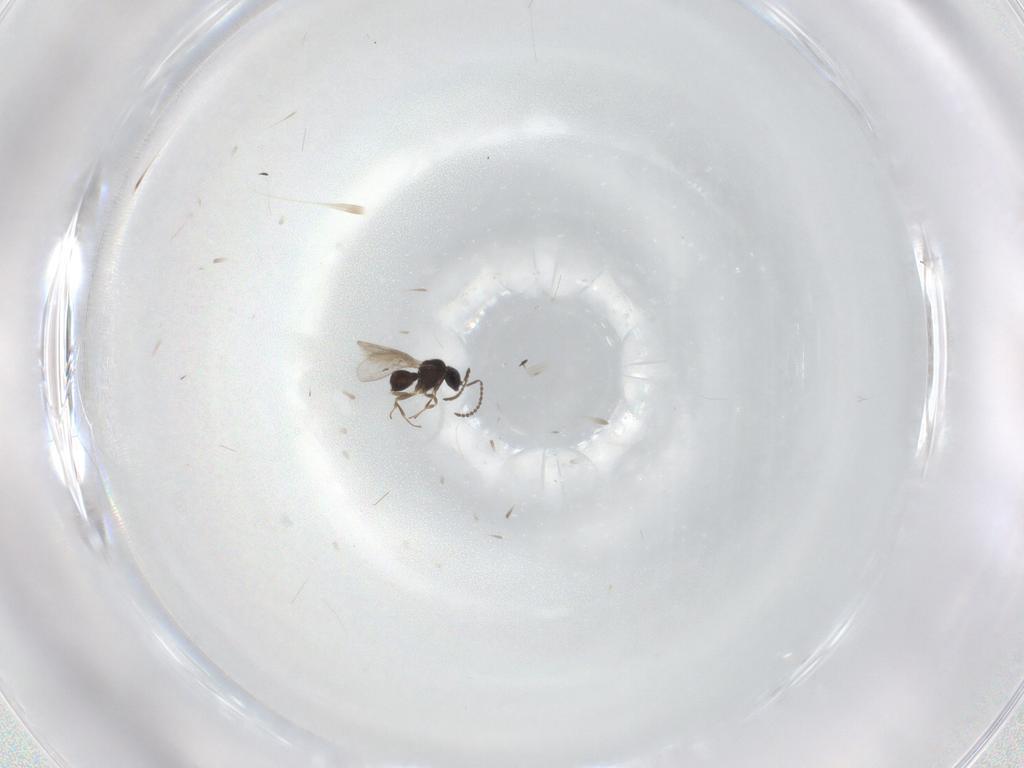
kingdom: Animalia
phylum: Arthropoda
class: Insecta
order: Hymenoptera
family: Scelionidae
